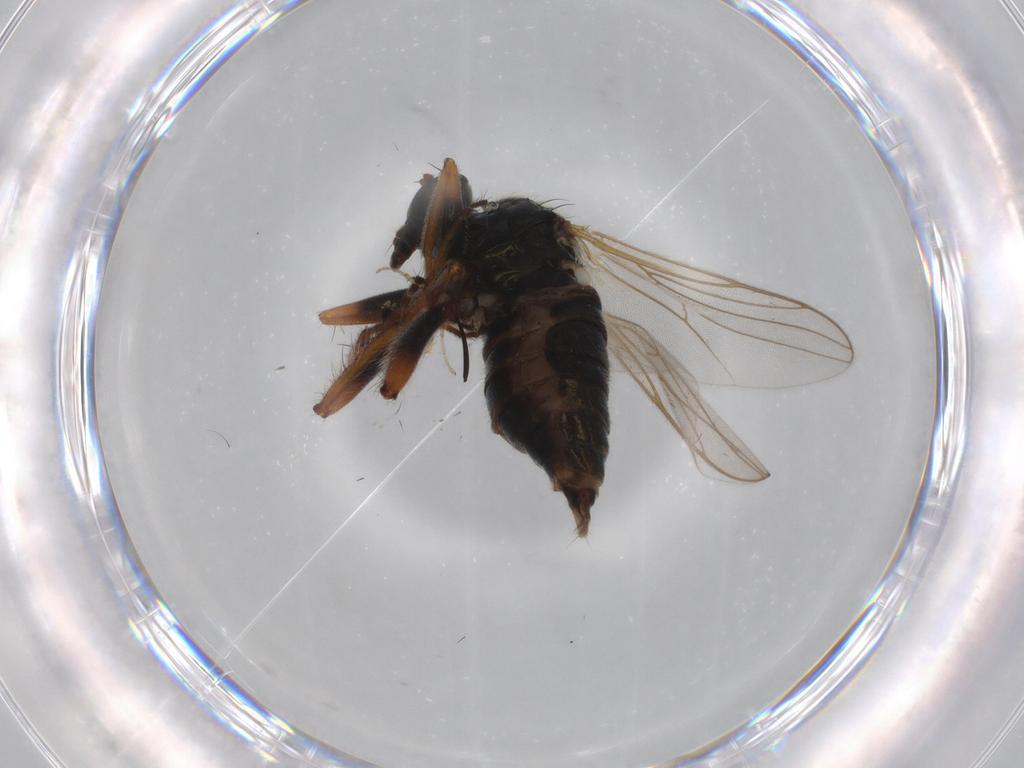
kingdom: Animalia
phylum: Arthropoda
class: Insecta
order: Diptera
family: Hybotidae
